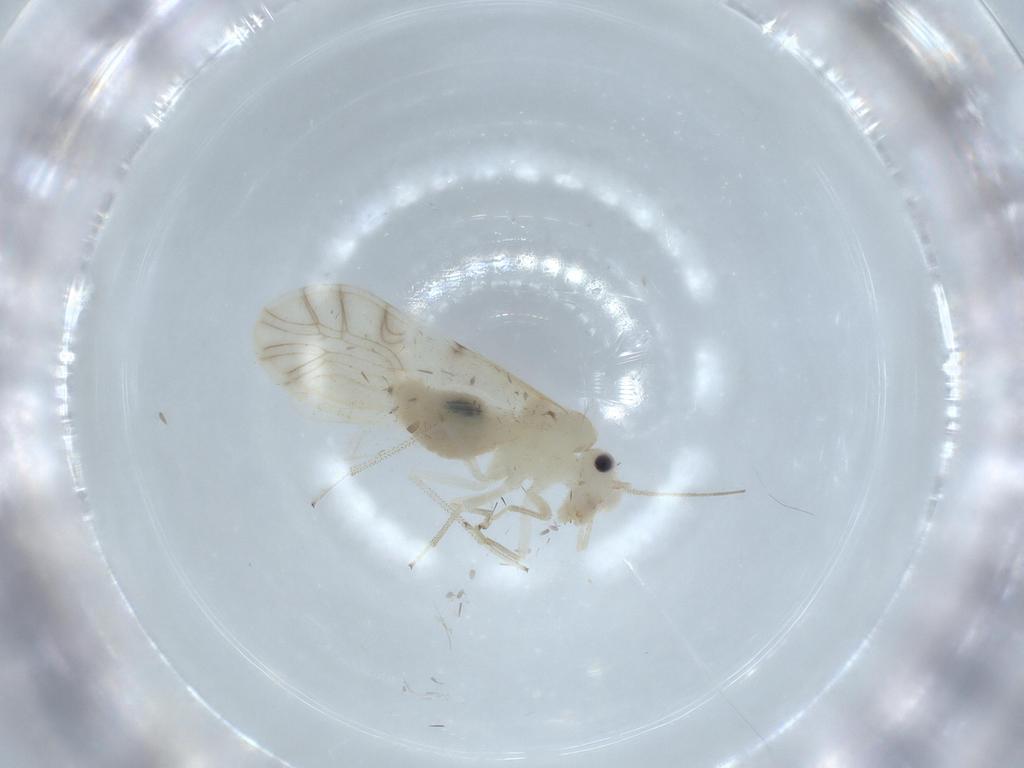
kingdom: Animalia
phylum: Arthropoda
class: Insecta
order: Psocodea
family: Caeciliusidae
